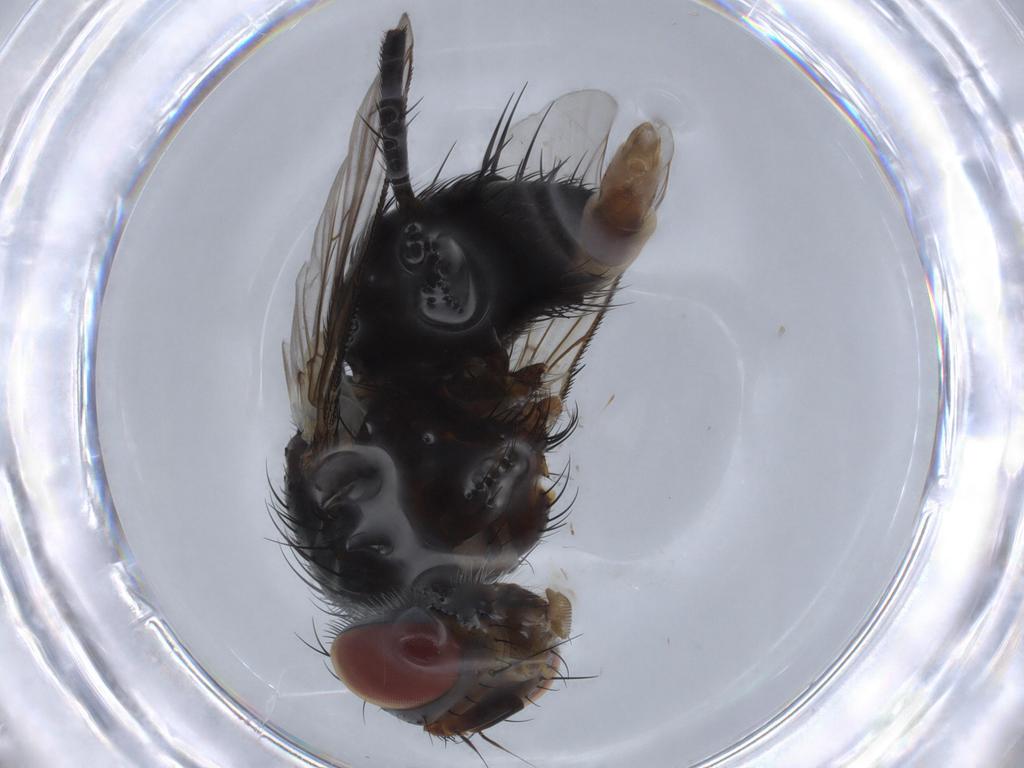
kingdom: Animalia
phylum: Arthropoda
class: Insecta
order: Diptera
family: Tachinidae
